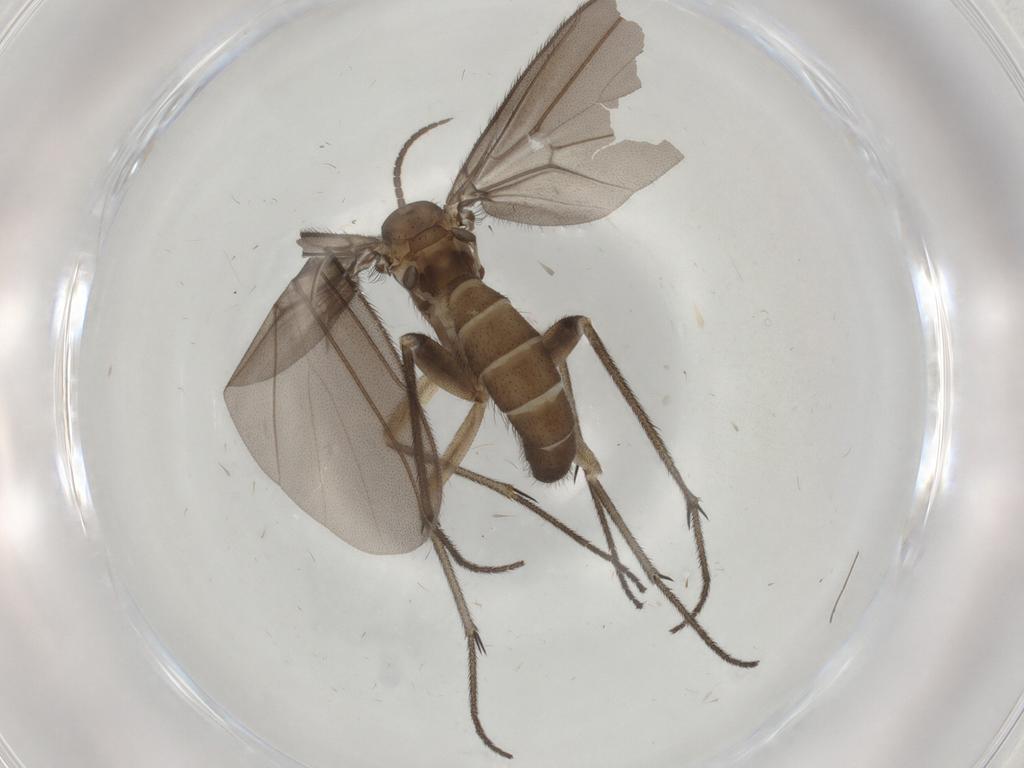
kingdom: Animalia
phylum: Arthropoda
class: Insecta
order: Diptera
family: Diadocidiidae
